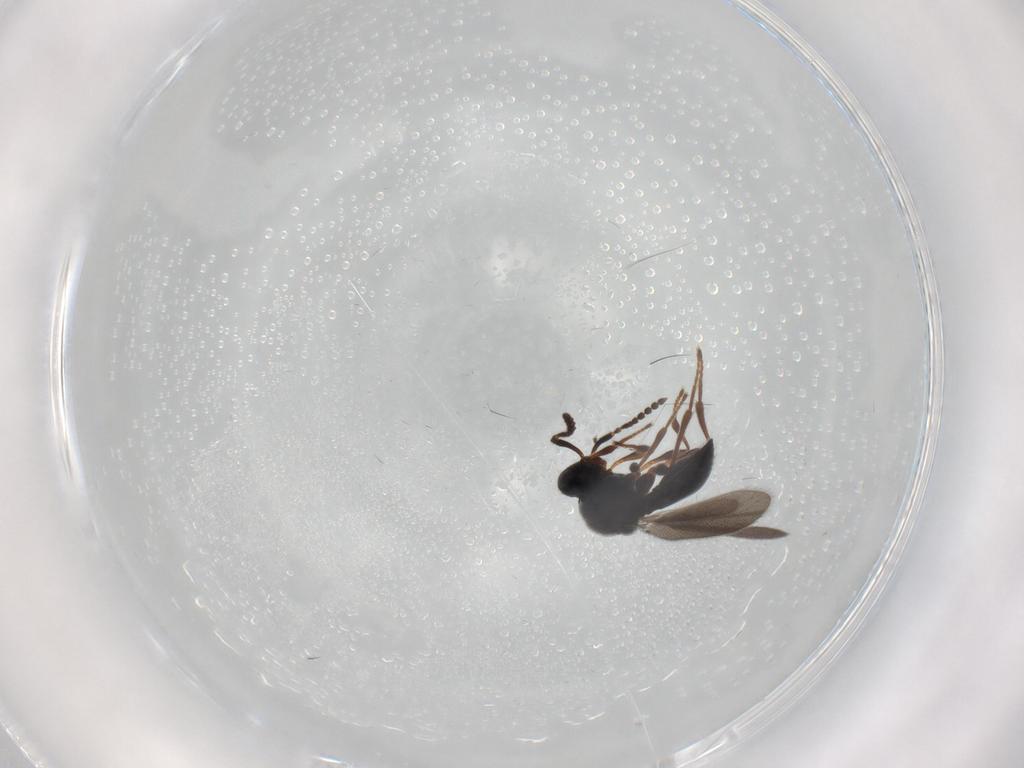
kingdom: Animalia
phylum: Arthropoda
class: Insecta
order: Hymenoptera
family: Platygastridae
